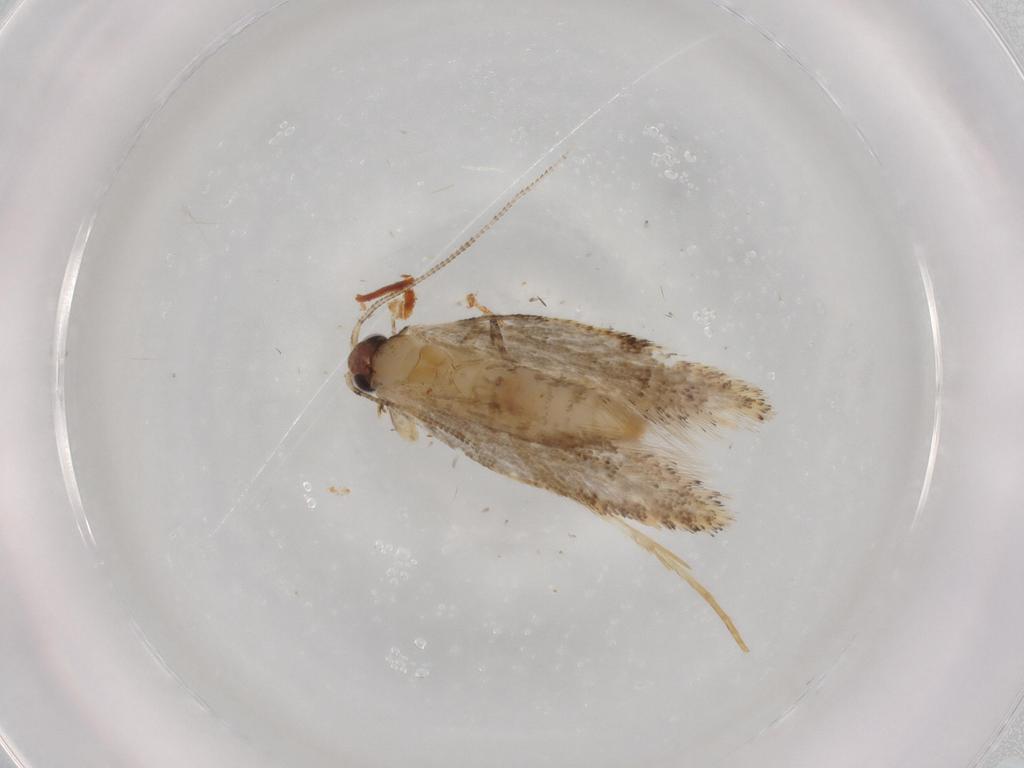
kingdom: Animalia
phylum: Arthropoda
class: Insecta
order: Lepidoptera
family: Tineidae
